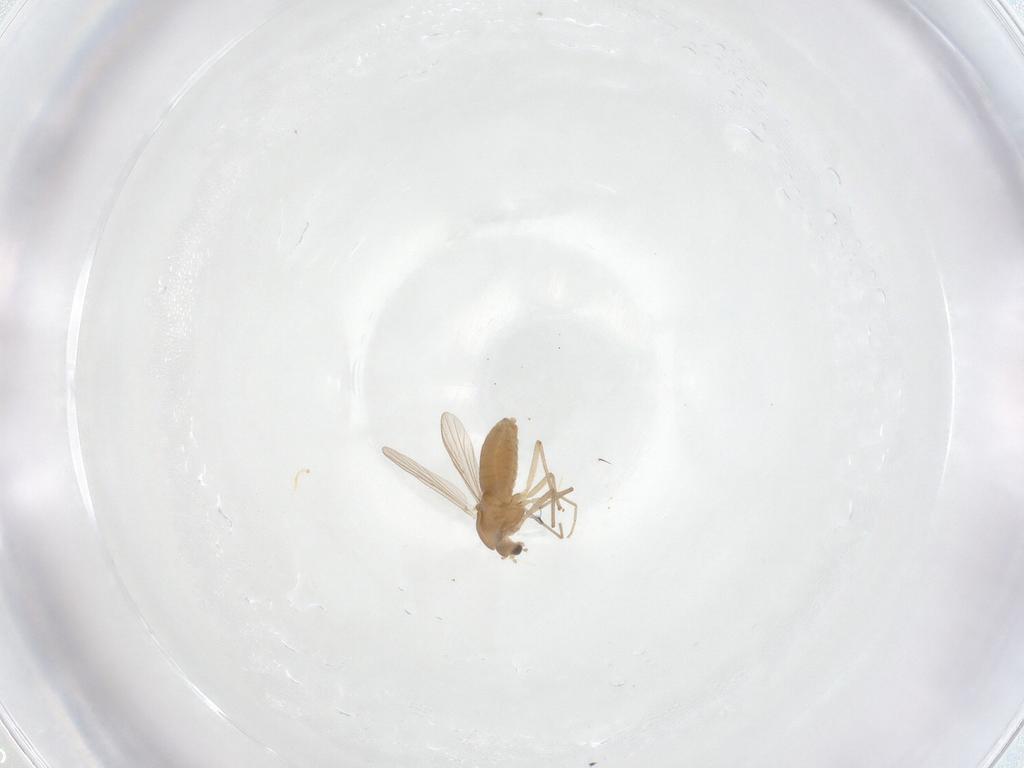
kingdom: Animalia
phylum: Arthropoda
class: Insecta
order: Diptera
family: Chironomidae
